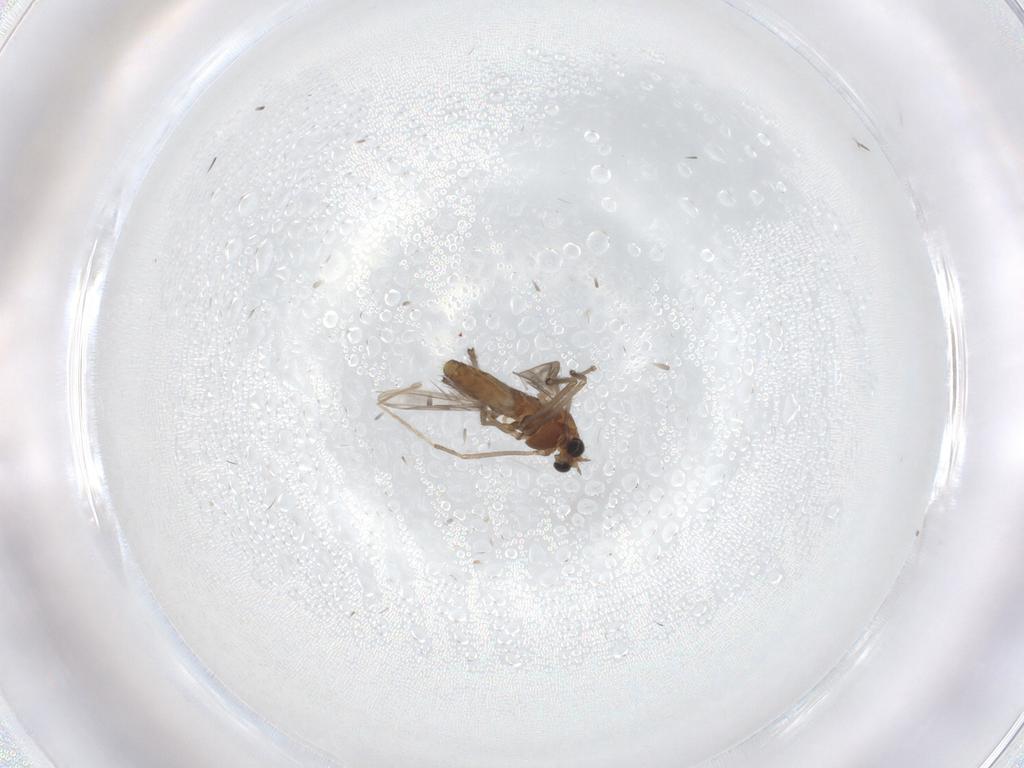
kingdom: Animalia
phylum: Arthropoda
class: Insecta
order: Diptera
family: Chironomidae
